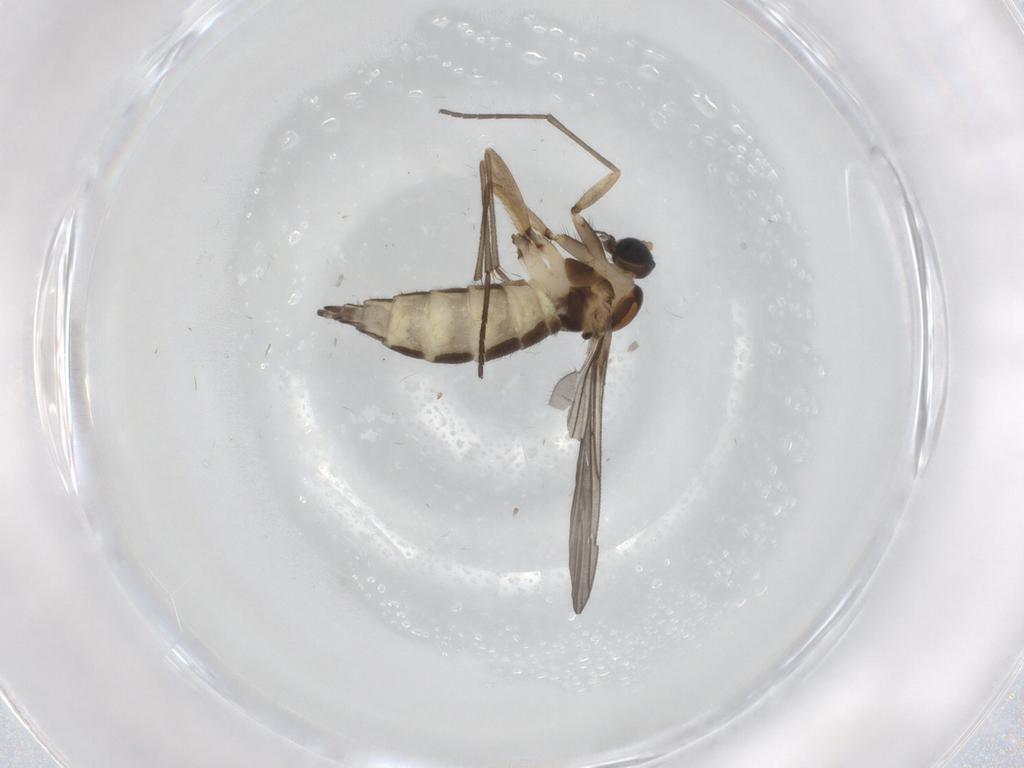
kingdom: Animalia
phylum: Arthropoda
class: Insecta
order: Diptera
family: Sciaridae
